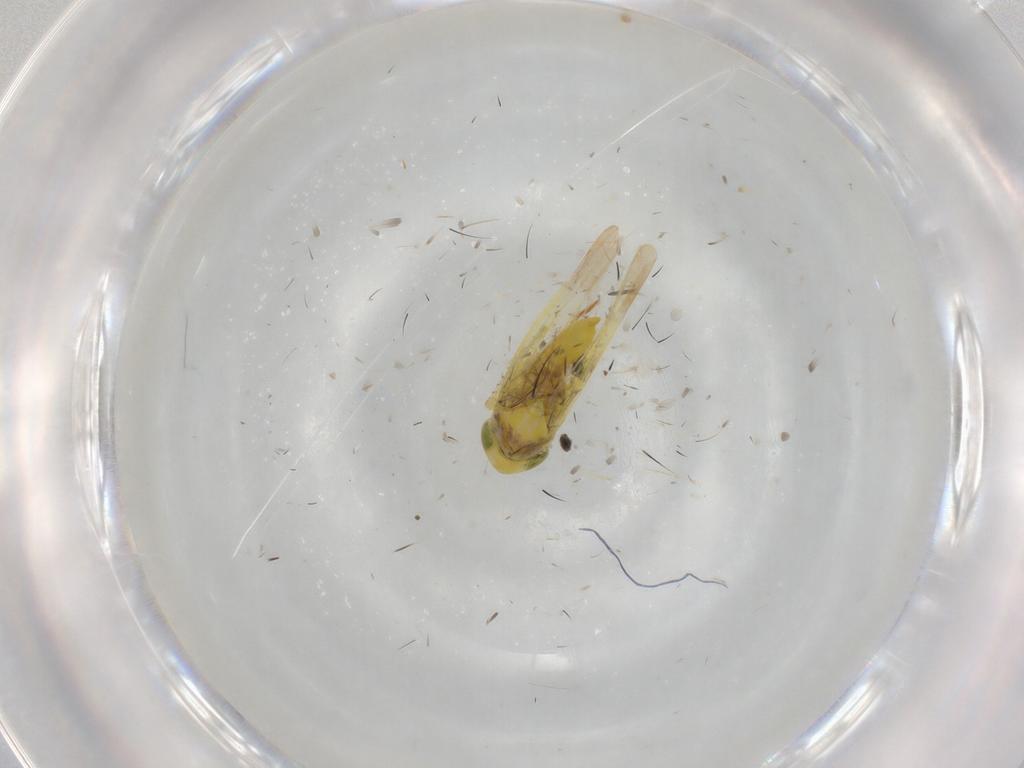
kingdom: Animalia
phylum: Arthropoda
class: Insecta
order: Hemiptera
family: Cicadellidae
